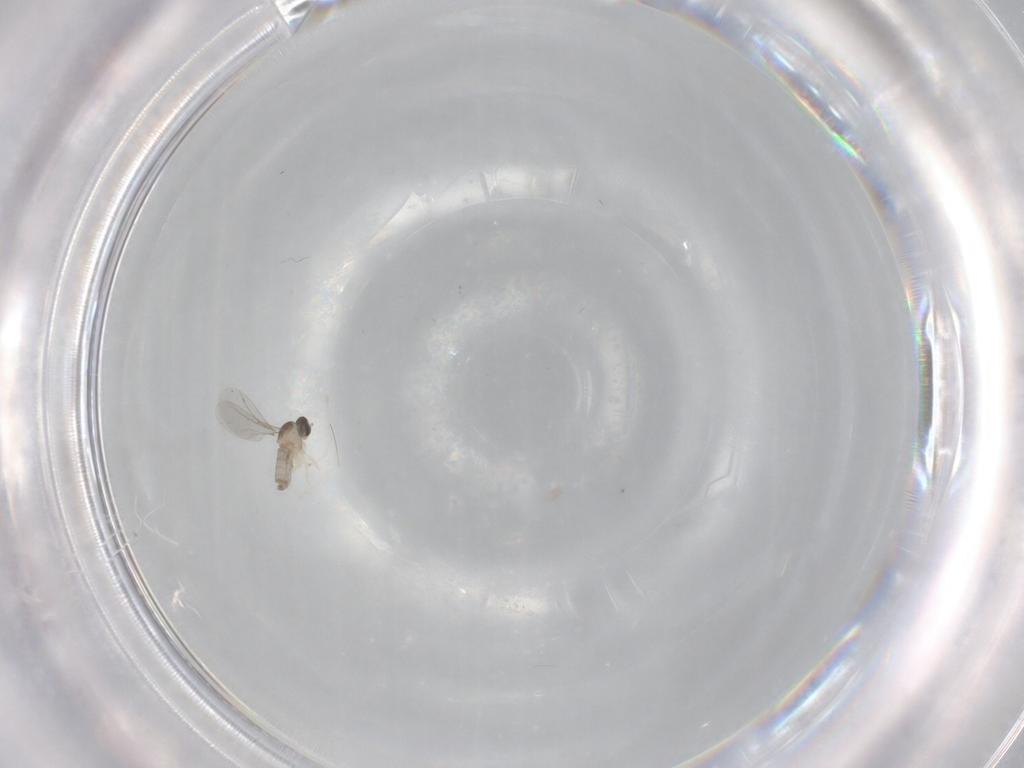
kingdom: Animalia
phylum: Arthropoda
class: Insecta
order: Diptera
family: Cecidomyiidae
